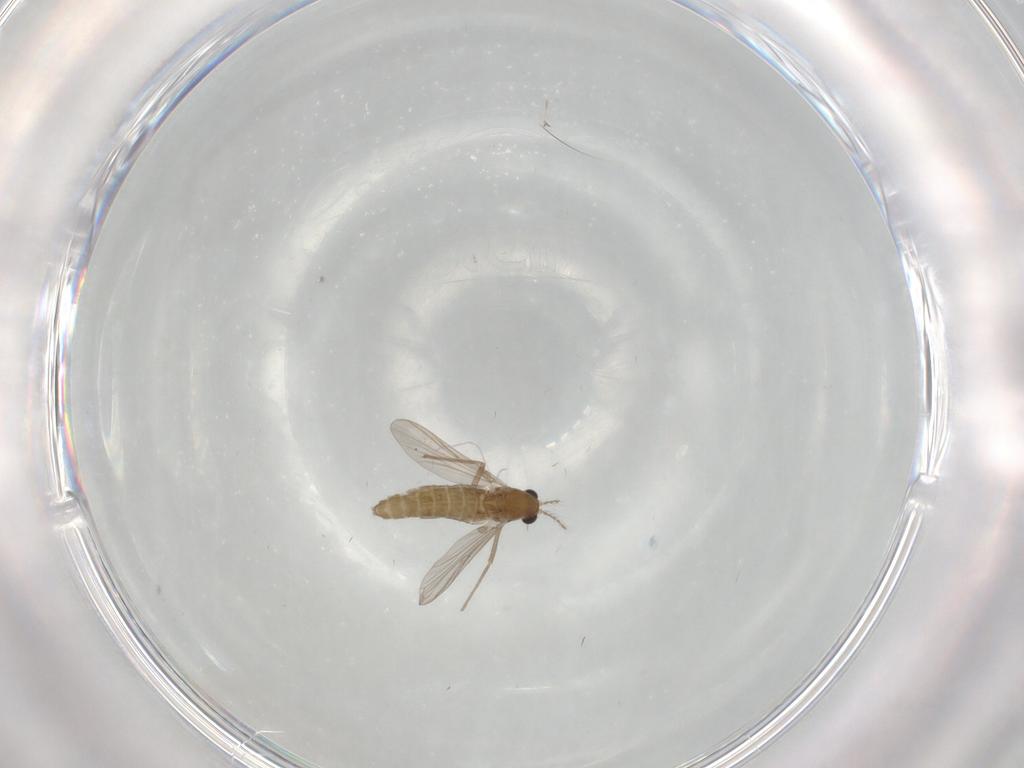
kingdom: Animalia
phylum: Arthropoda
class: Insecta
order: Diptera
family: Chironomidae
